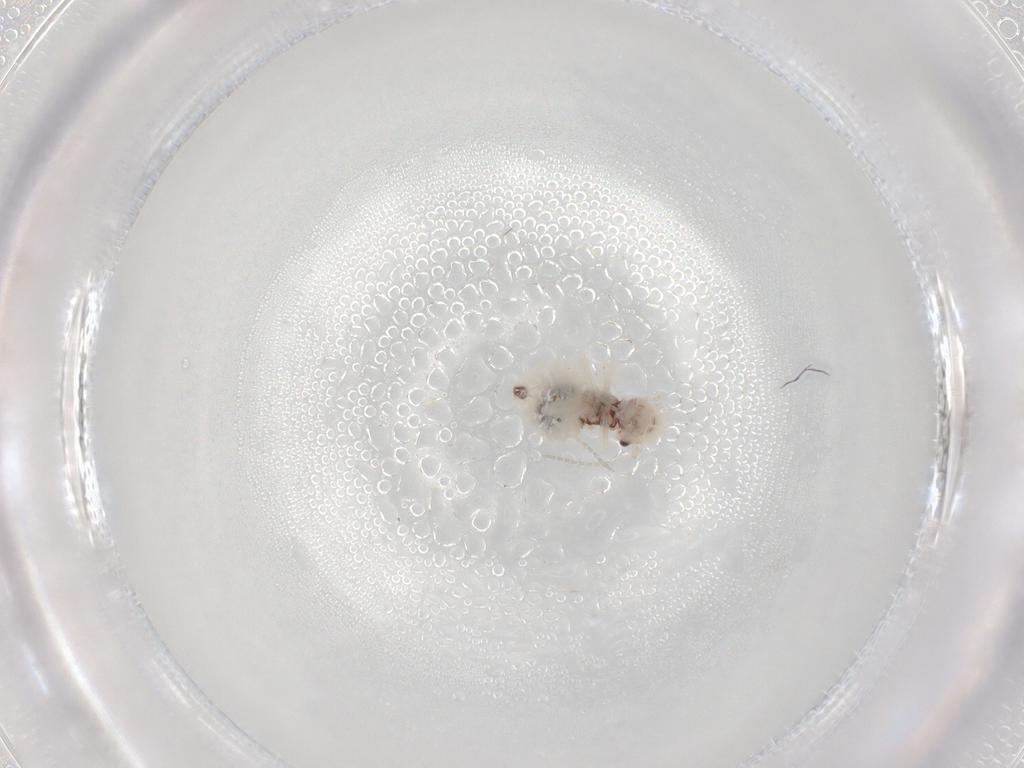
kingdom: Animalia
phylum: Arthropoda
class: Insecta
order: Psocodea
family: Amphipsocidae
